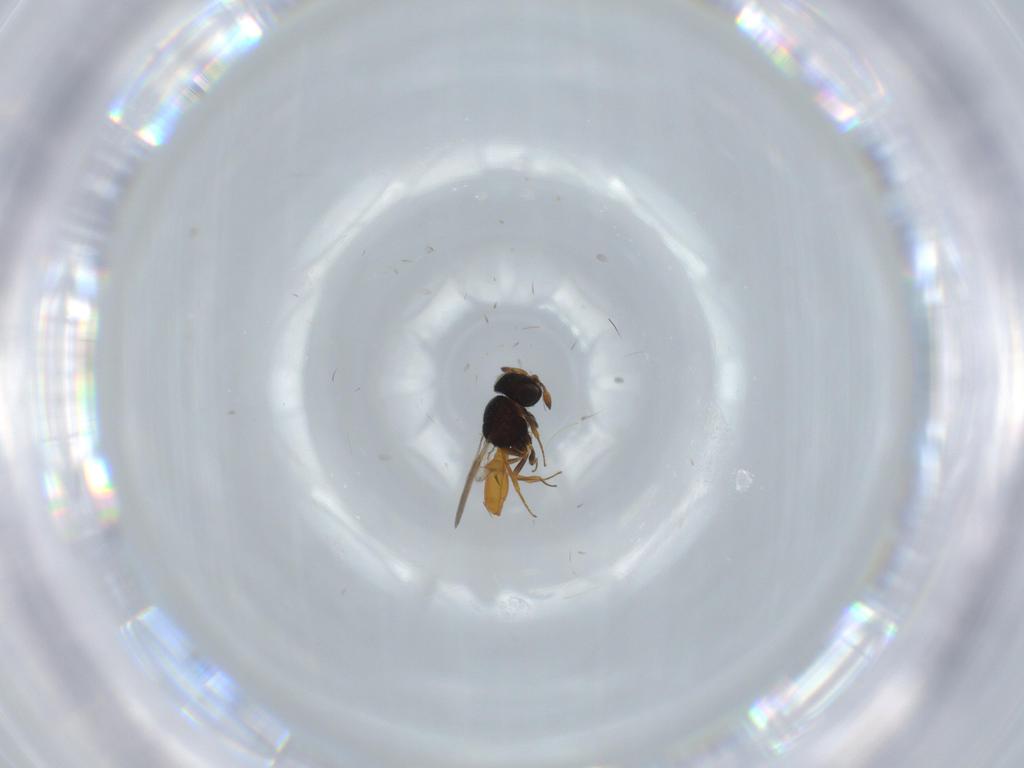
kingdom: Animalia
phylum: Arthropoda
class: Insecta
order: Hymenoptera
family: Scelionidae
